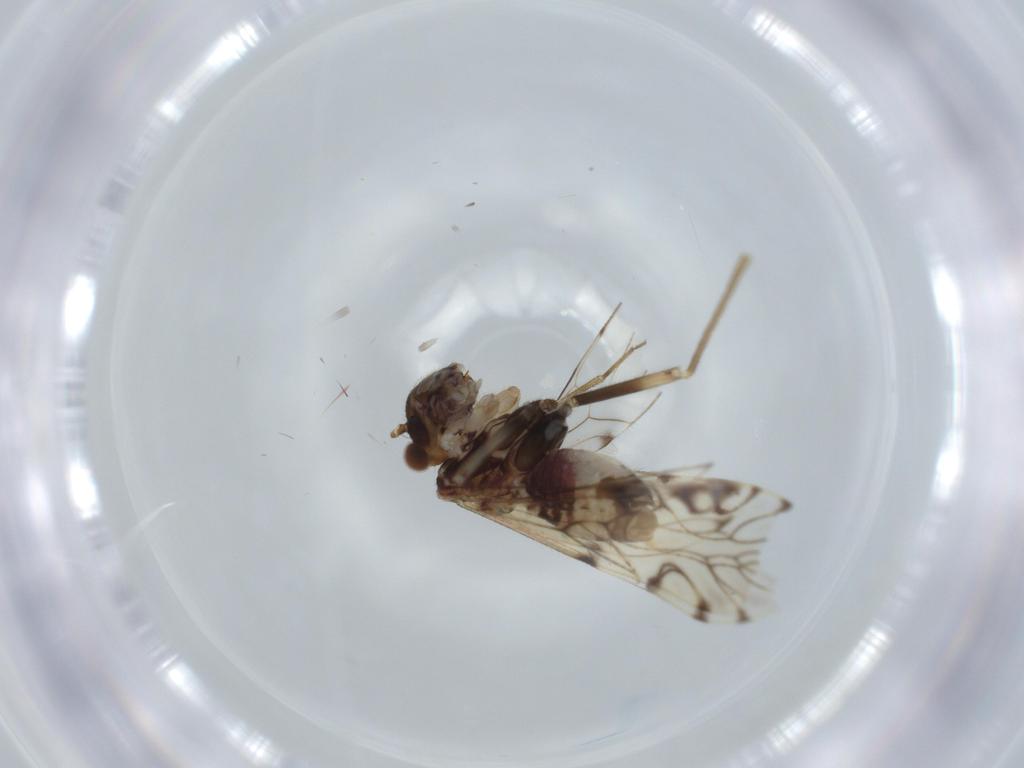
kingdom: Animalia
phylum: Arthropoda
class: Insecta
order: Diptera
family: Psychodidae
